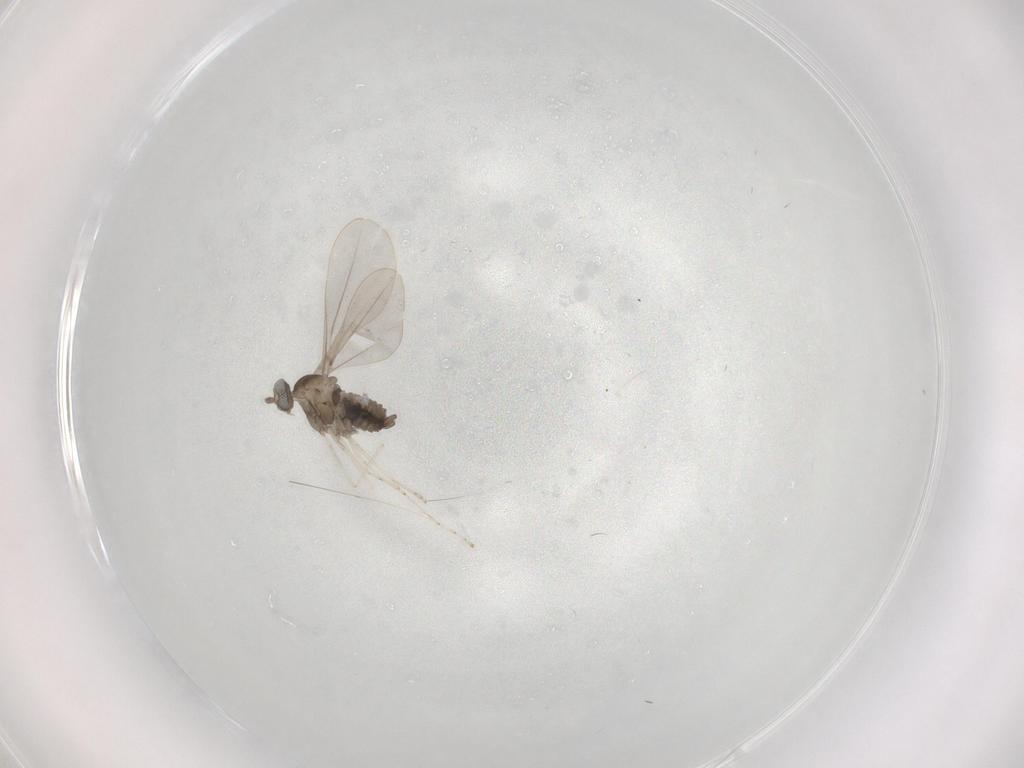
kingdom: Animalia
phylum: Arthropoda
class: Insecta
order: Diptera
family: Cecidomyiidae
